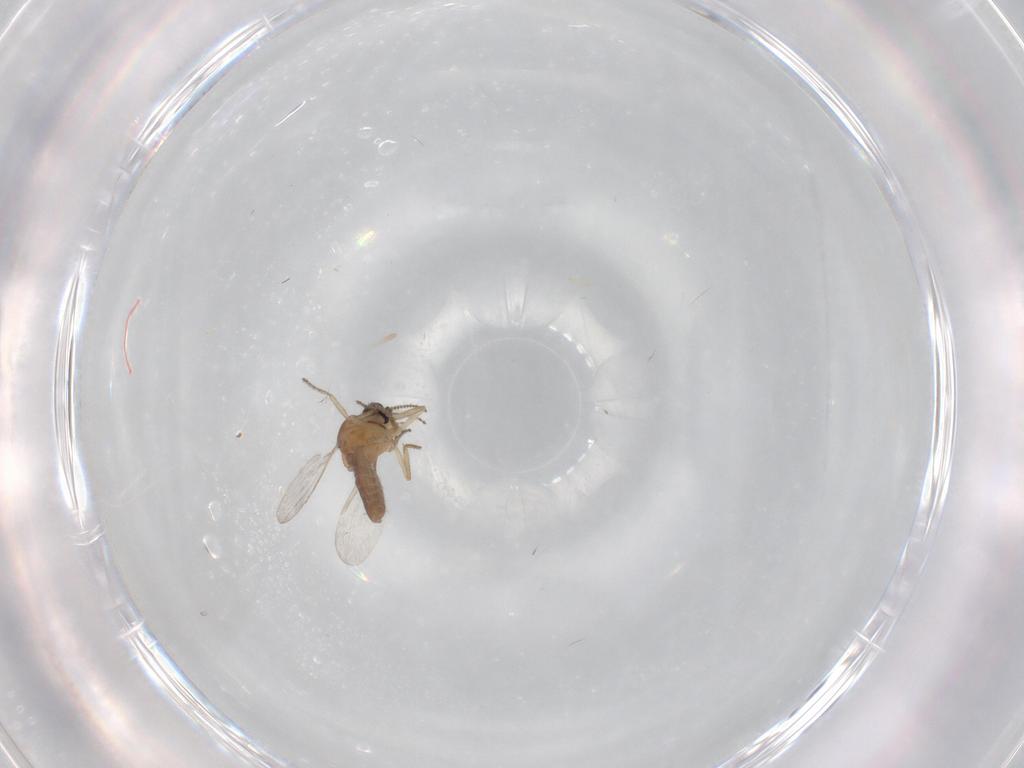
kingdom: Animalia
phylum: Arthropoda
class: Insecta
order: Diptera
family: Ceratopogonidae
